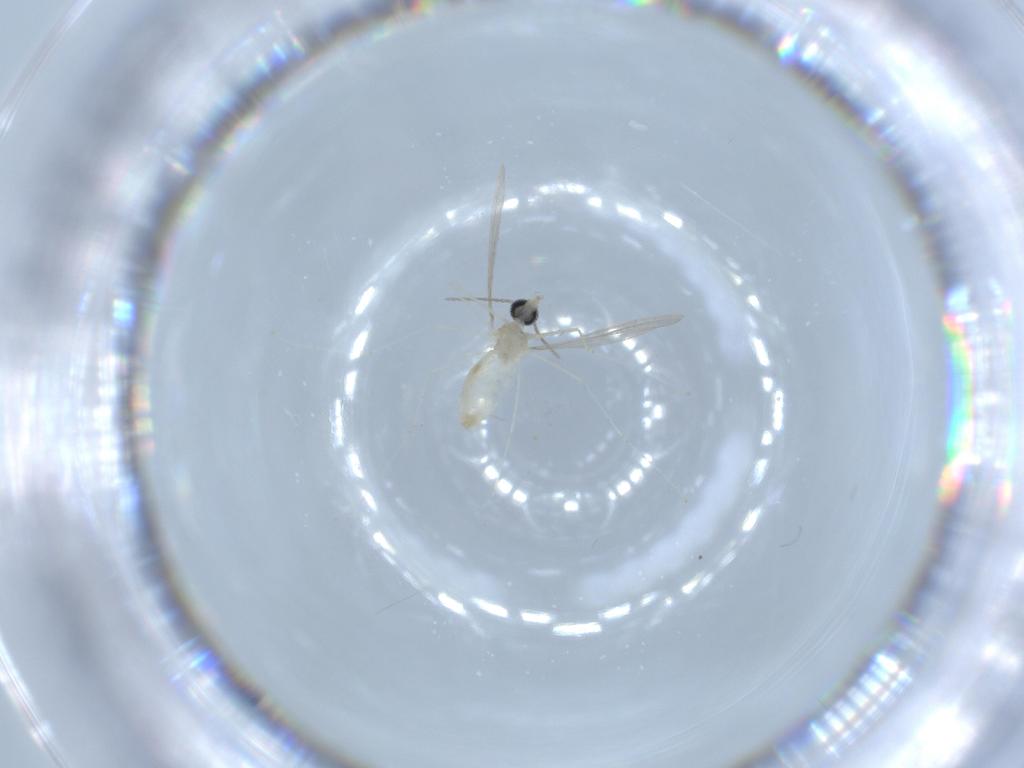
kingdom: Animalia
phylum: Arthropoda
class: Insecta
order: Diptera
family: Cecidomyiidae
